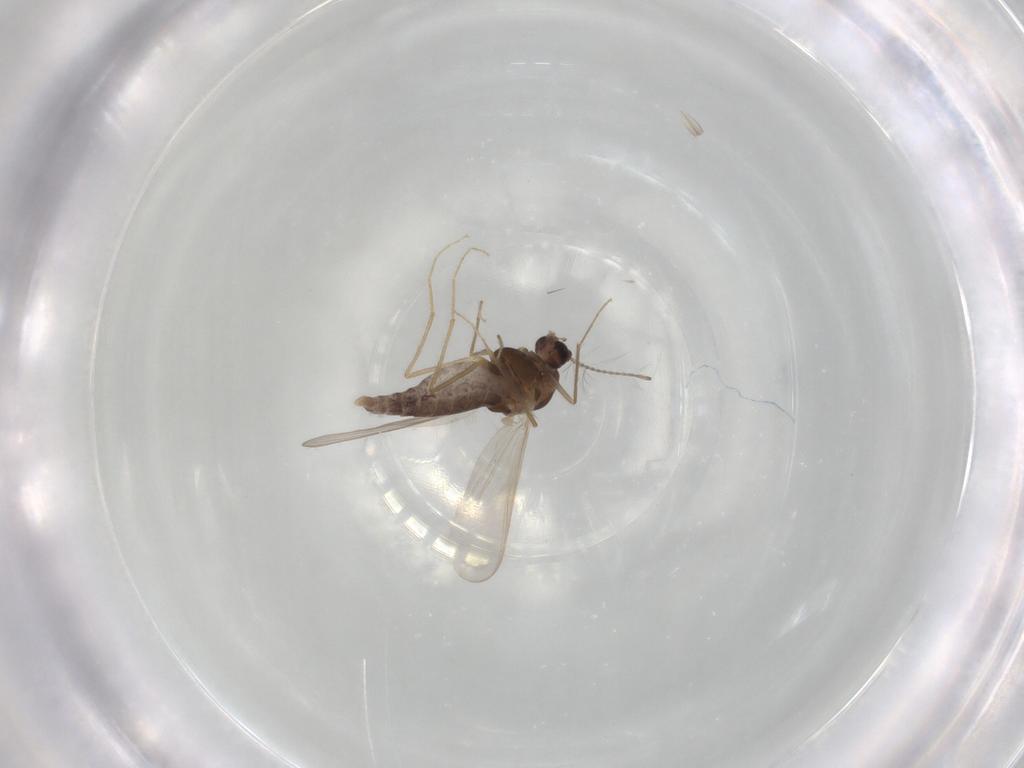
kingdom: Animalia
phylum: Arthropoda
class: Insecta
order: Diptera
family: Chironomidae
